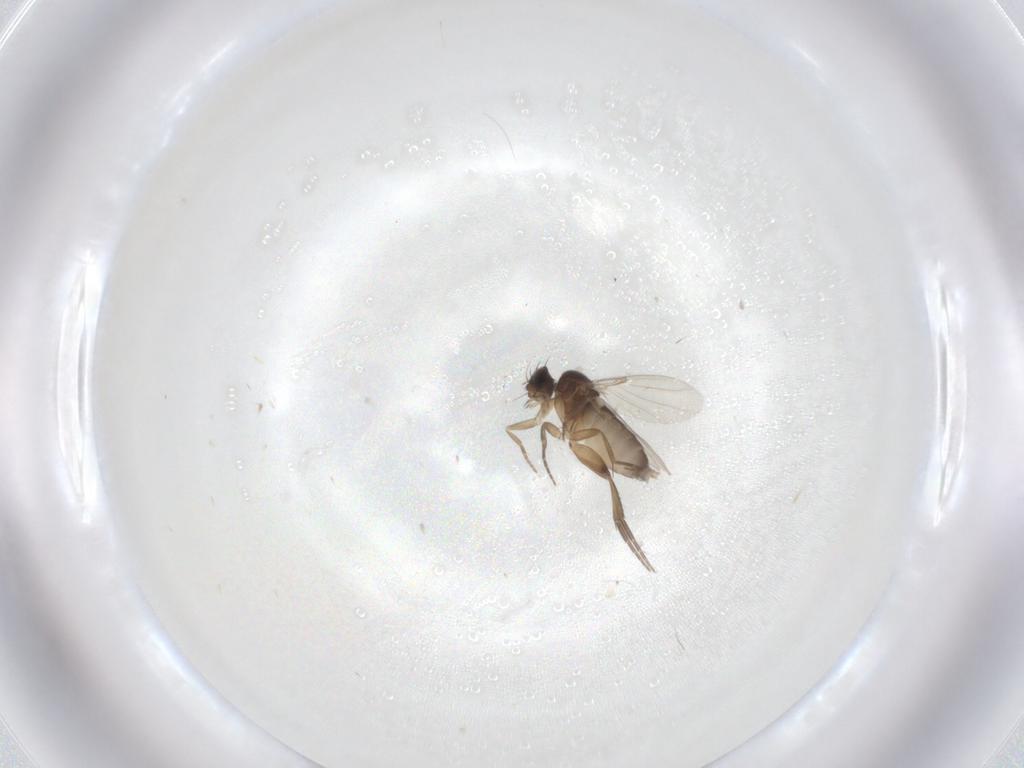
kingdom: Animalia
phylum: Arthropoda
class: Insecta
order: Diptera
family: Phoridae
